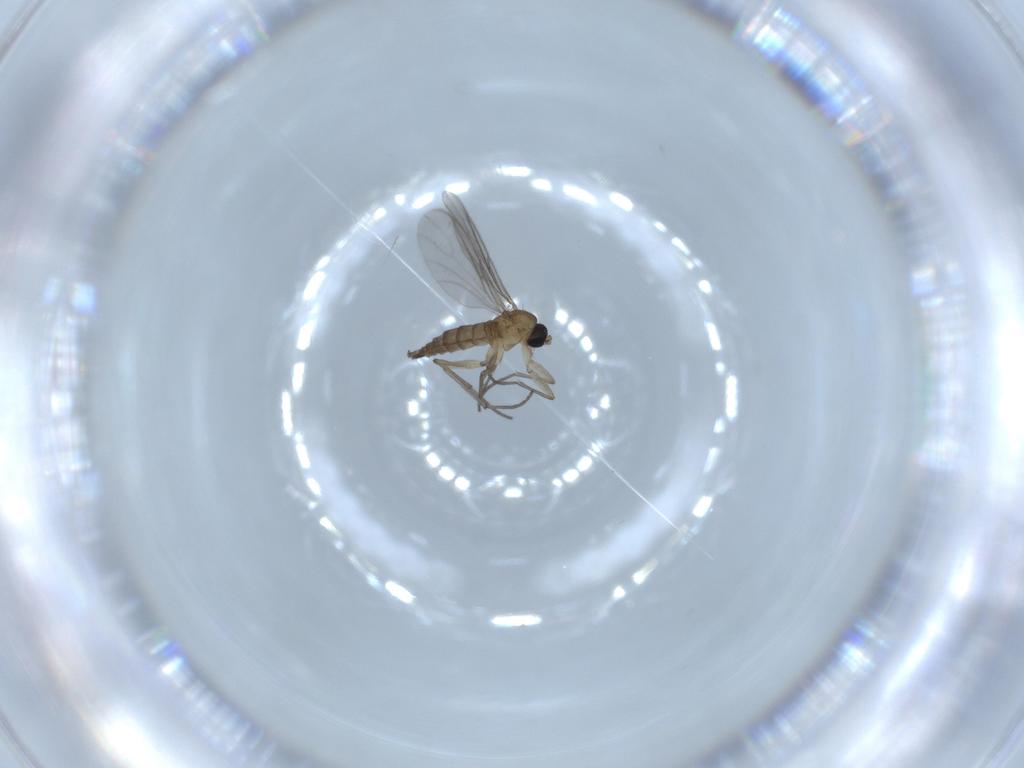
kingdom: Animalia
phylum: Arthropoda
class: Insecta
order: Diptera
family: Empididae
